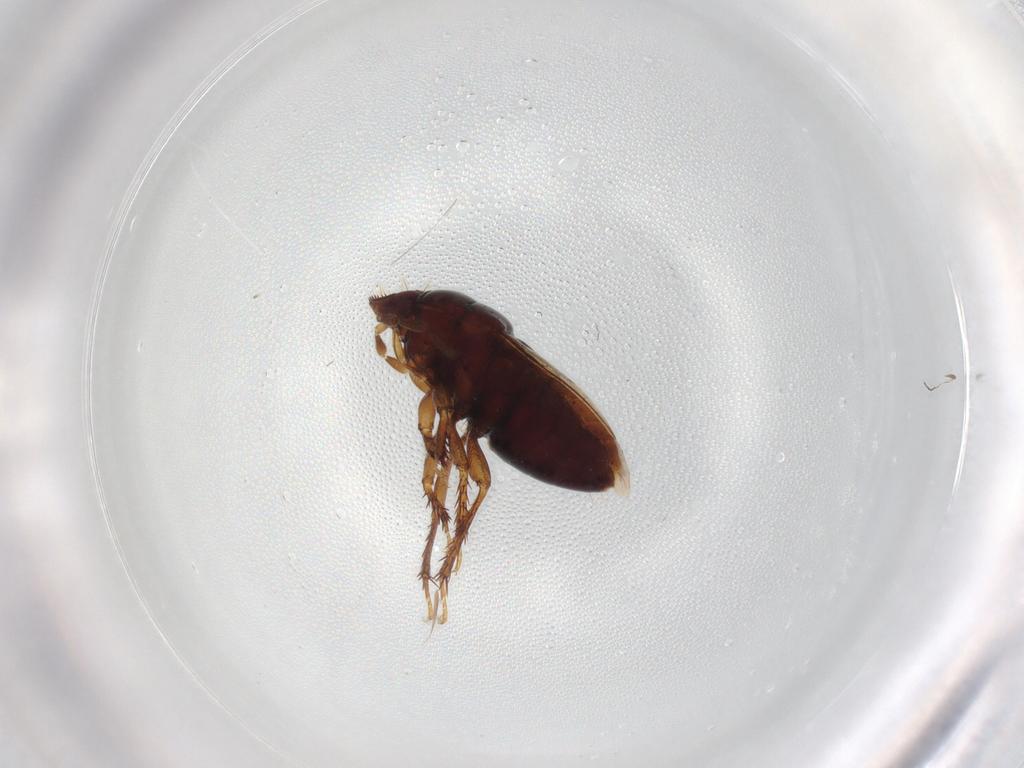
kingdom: Animalia
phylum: Arthropoda
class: Insecta
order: Hemiptera
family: Cydnidae
